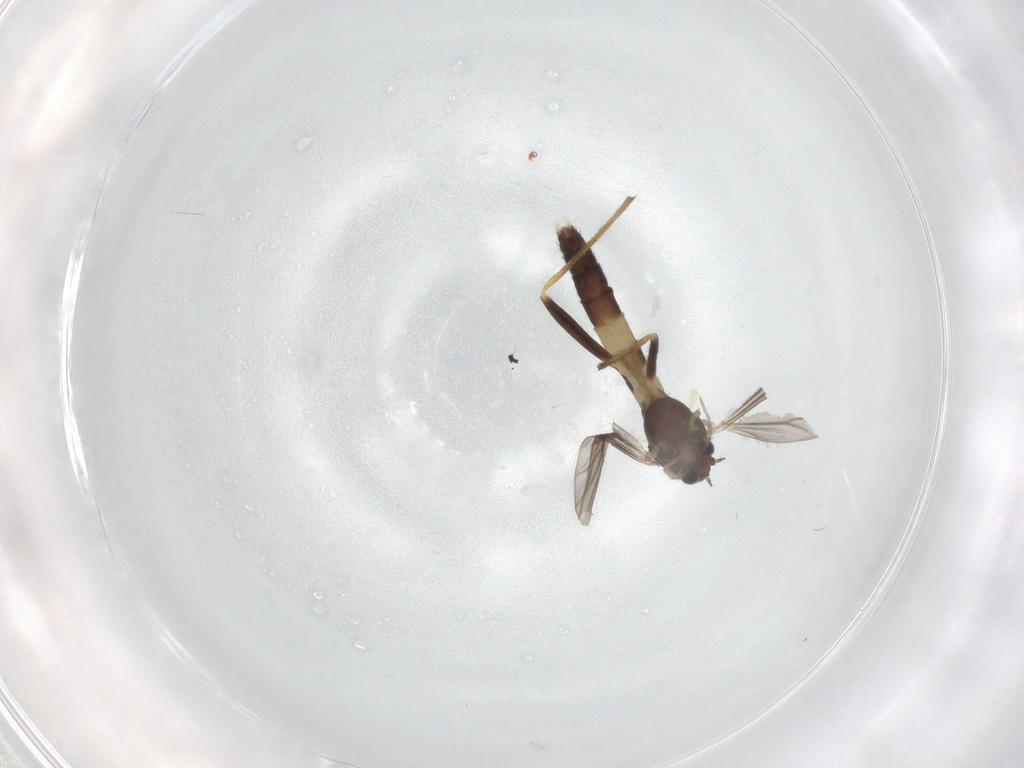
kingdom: Animalia
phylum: Arthropoda
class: Insecta
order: Diptera
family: Chironomidae
